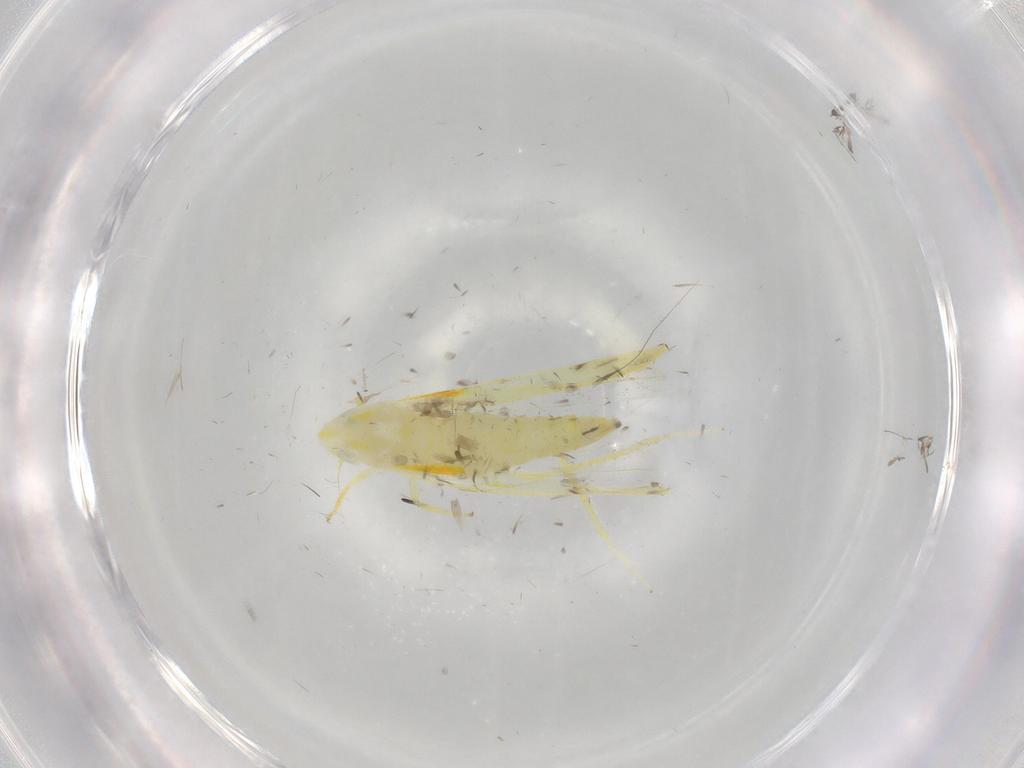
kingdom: Animalia
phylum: Arthropoda
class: Insecta
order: Hemiptera
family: Cicadellidae
